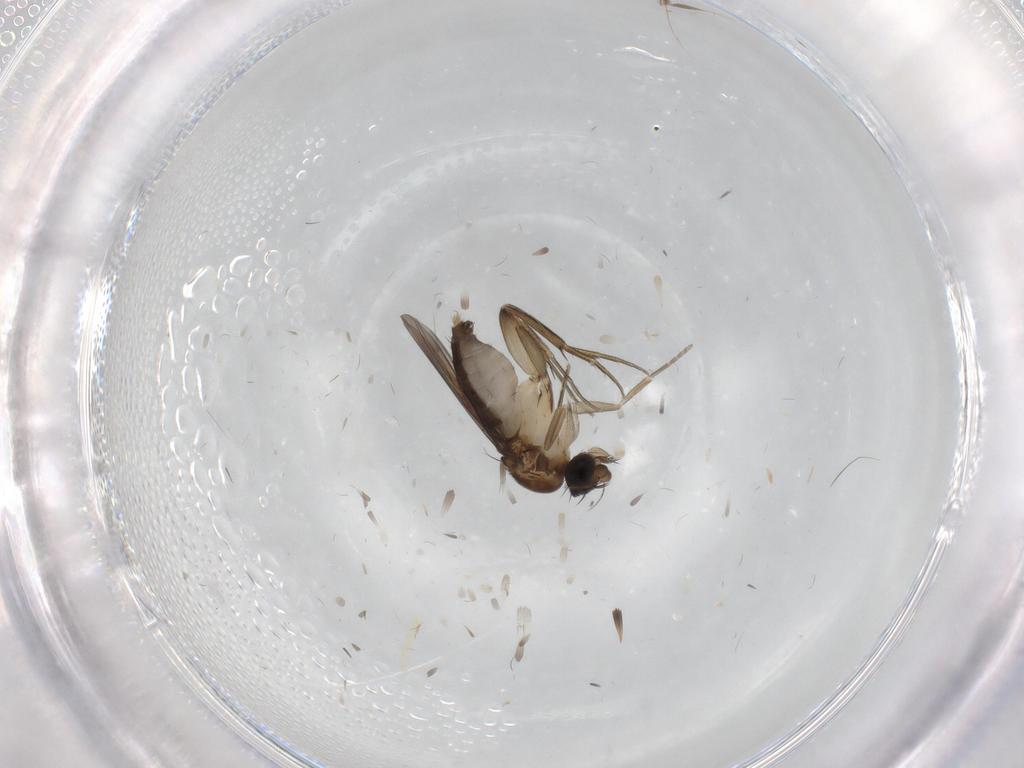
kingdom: Animalia
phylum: Arthropoda
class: Insecta
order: Diptera
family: Phoridae
